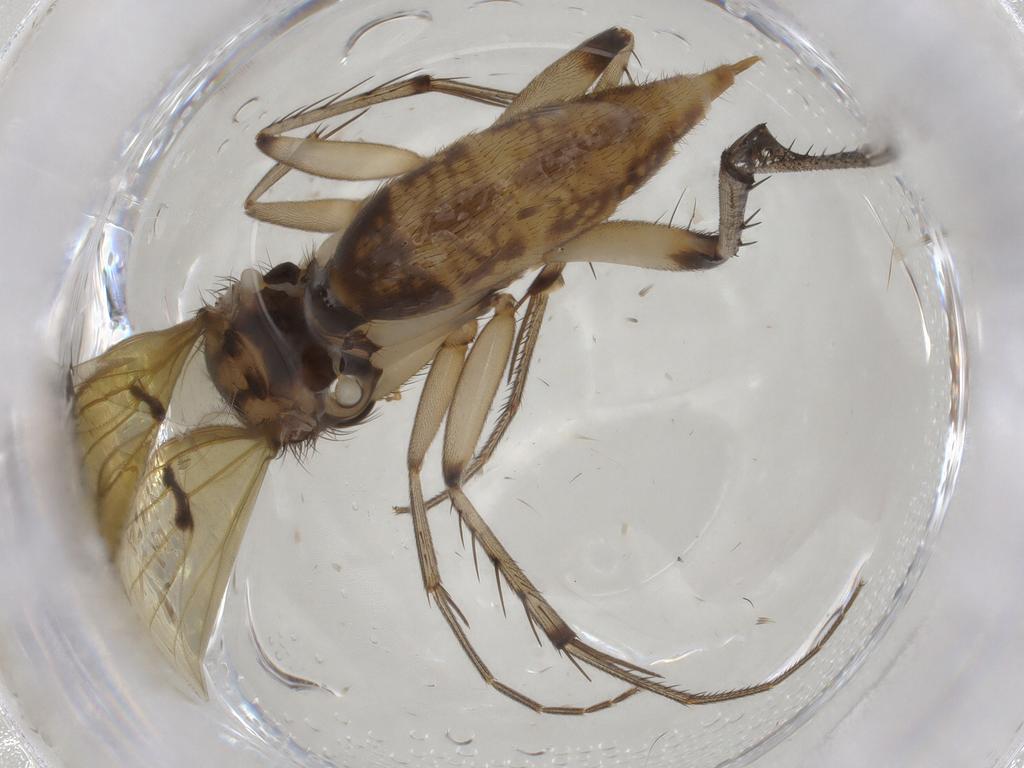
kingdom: Animalia
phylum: Arthropoda
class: Insecta
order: Diptera
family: Mycetophilidae
